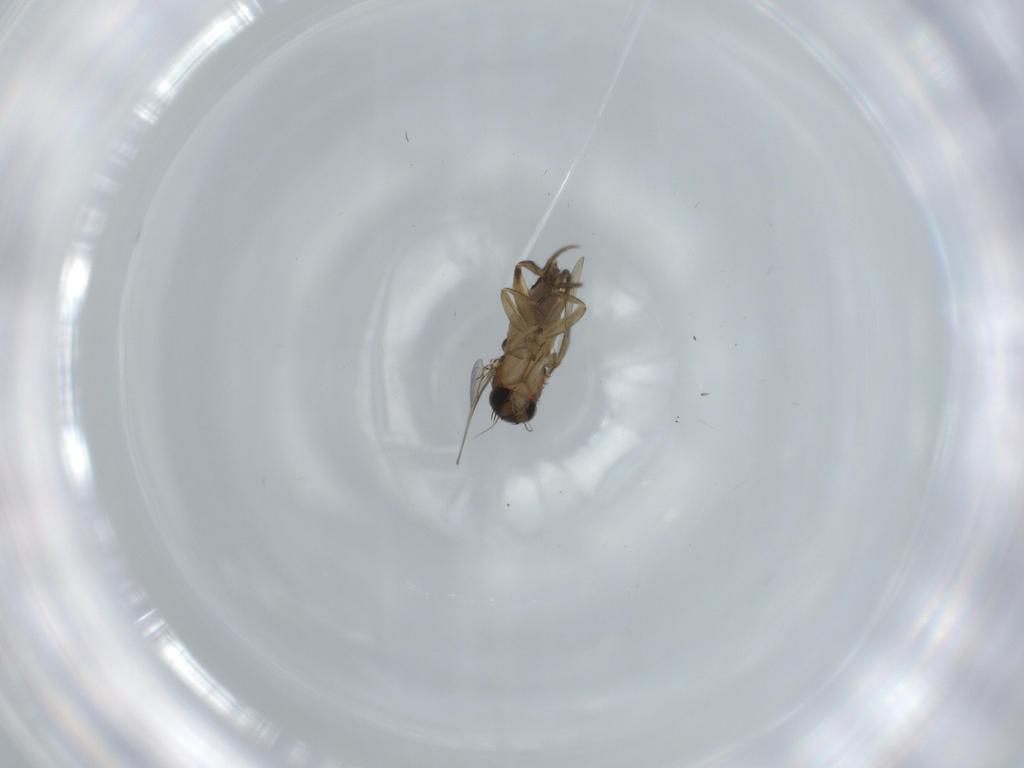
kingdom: Animalia
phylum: Arthropoda
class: Insecta
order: Diptera
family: Phoridae
